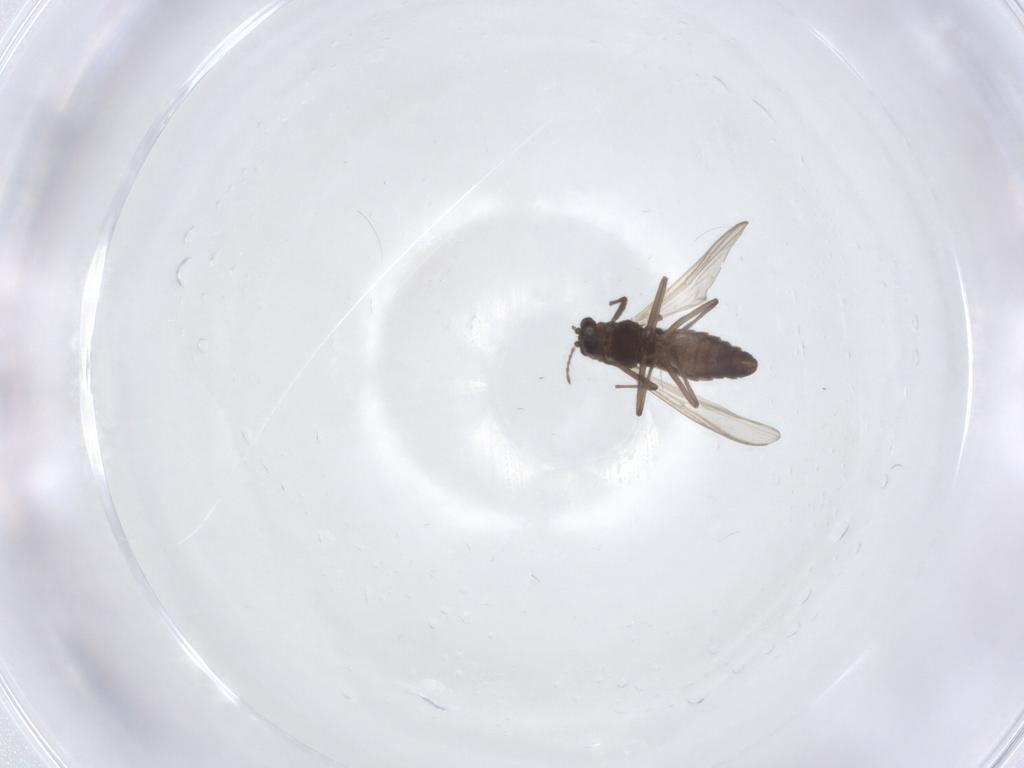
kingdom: Animalia
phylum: Arthropoda
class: Insecta
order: Diptera
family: Chironomidae
